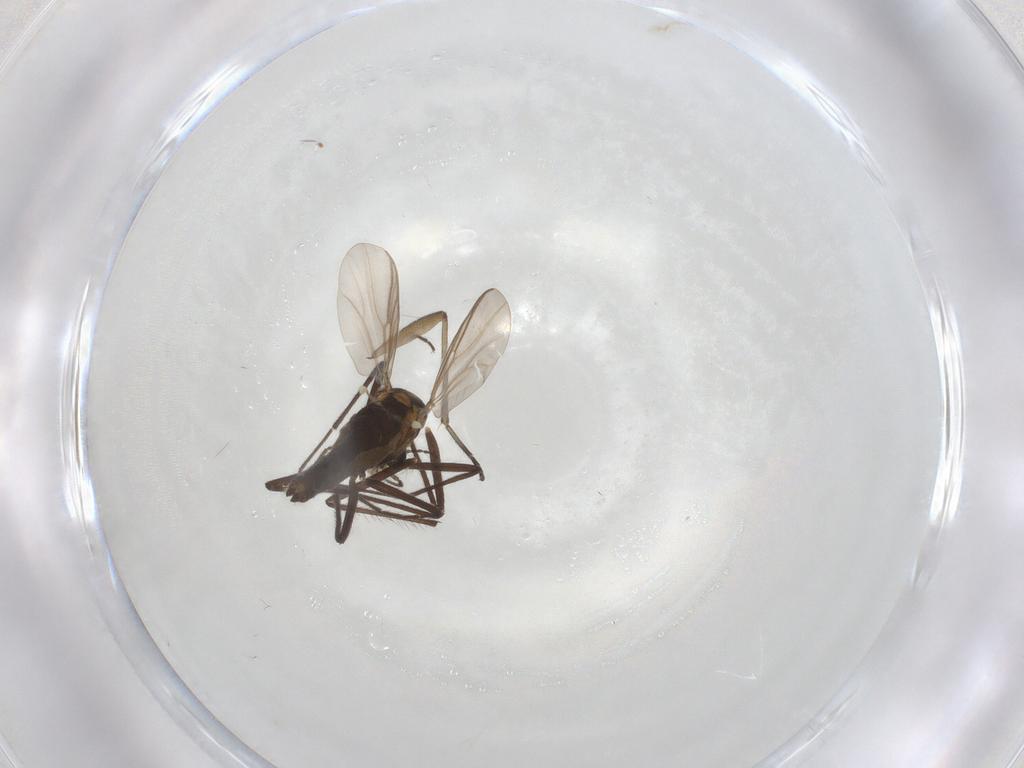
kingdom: Animalia
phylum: Arthropoda
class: Insecta
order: Diptera
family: Chironomidae
